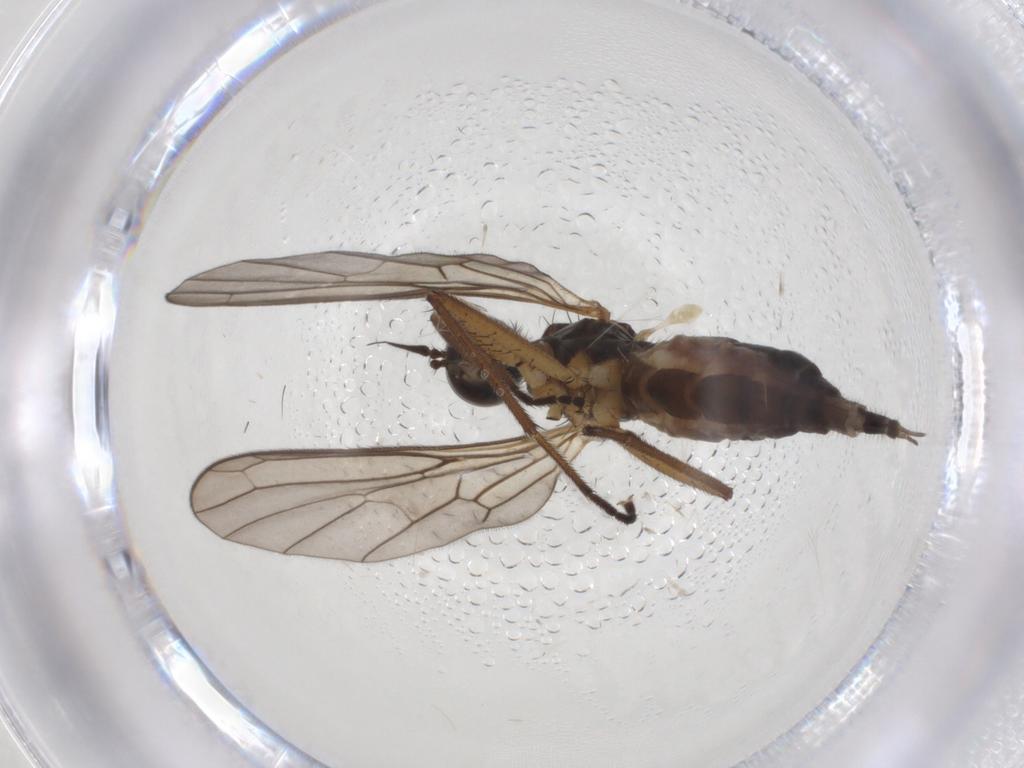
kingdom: Animalia
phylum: Arthropoda
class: Insecta
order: Diptera
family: Empididae
